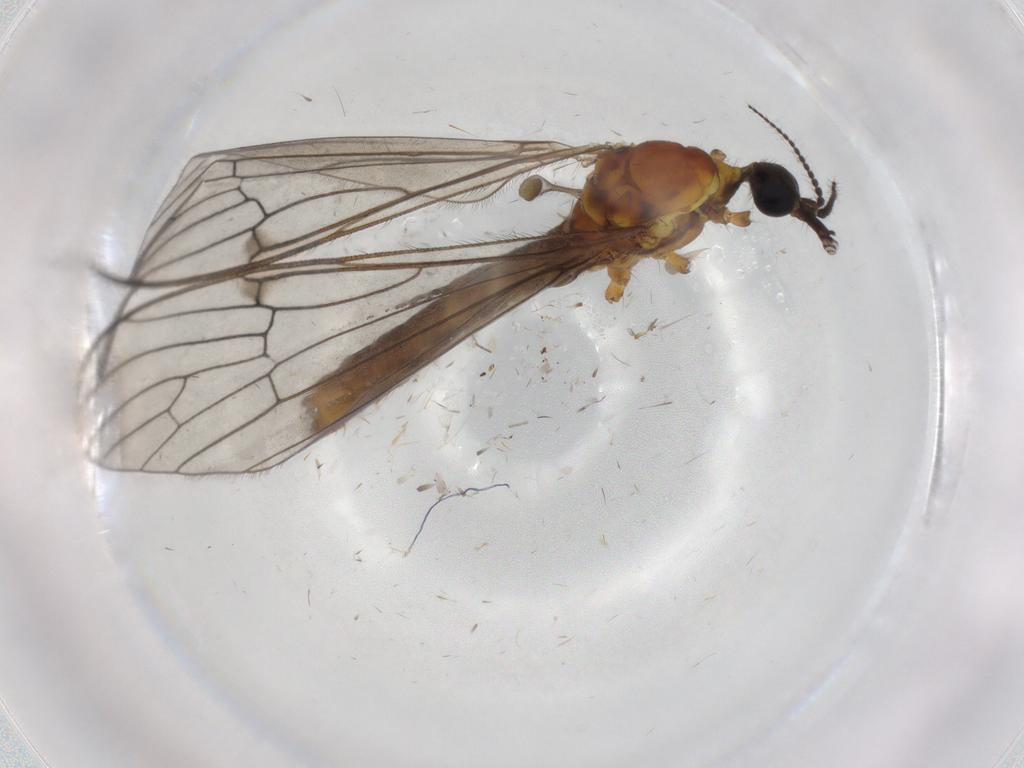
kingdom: Animalia
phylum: Arthropoda
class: Insecta
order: Diptera
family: Limoniidae
